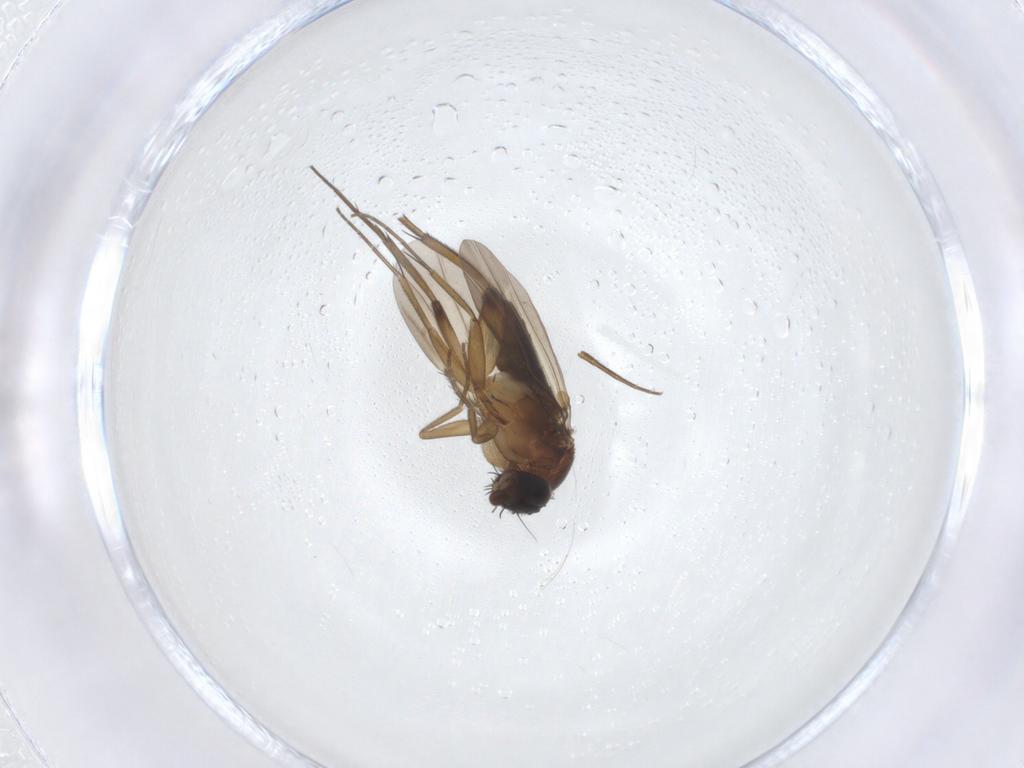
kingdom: Animalia
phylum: Arthropoda
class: Insecta
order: Diptera
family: Phoridae
